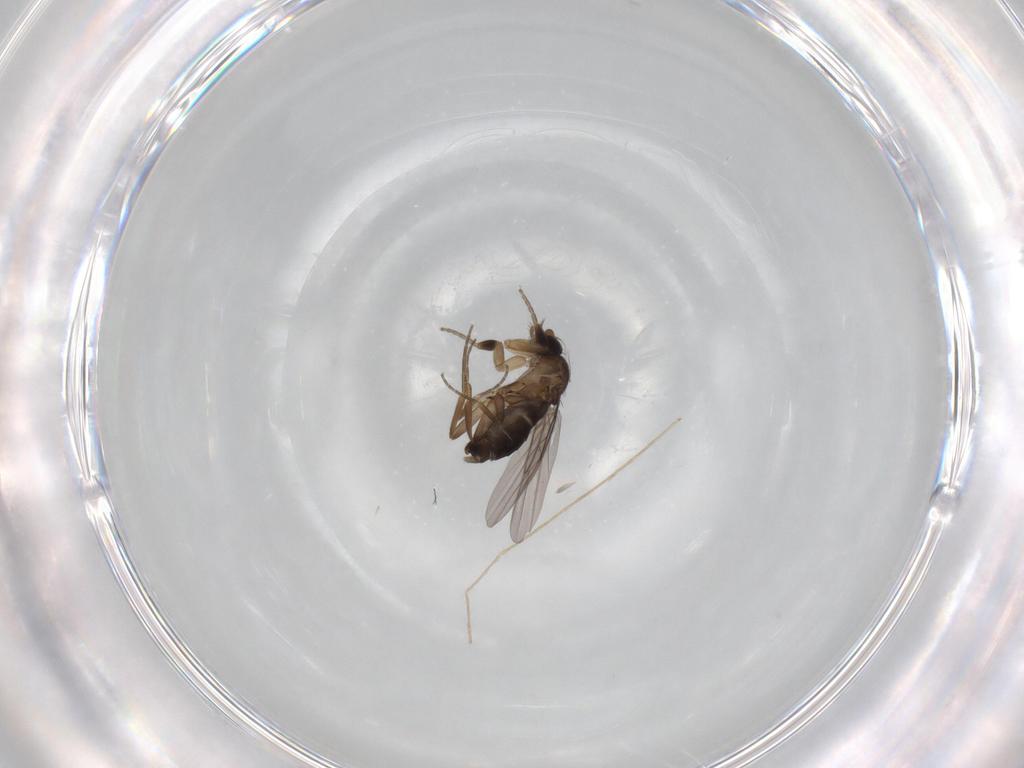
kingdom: Animalia
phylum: Arthropoda
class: Insecta
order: Diptera
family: Phoridae
